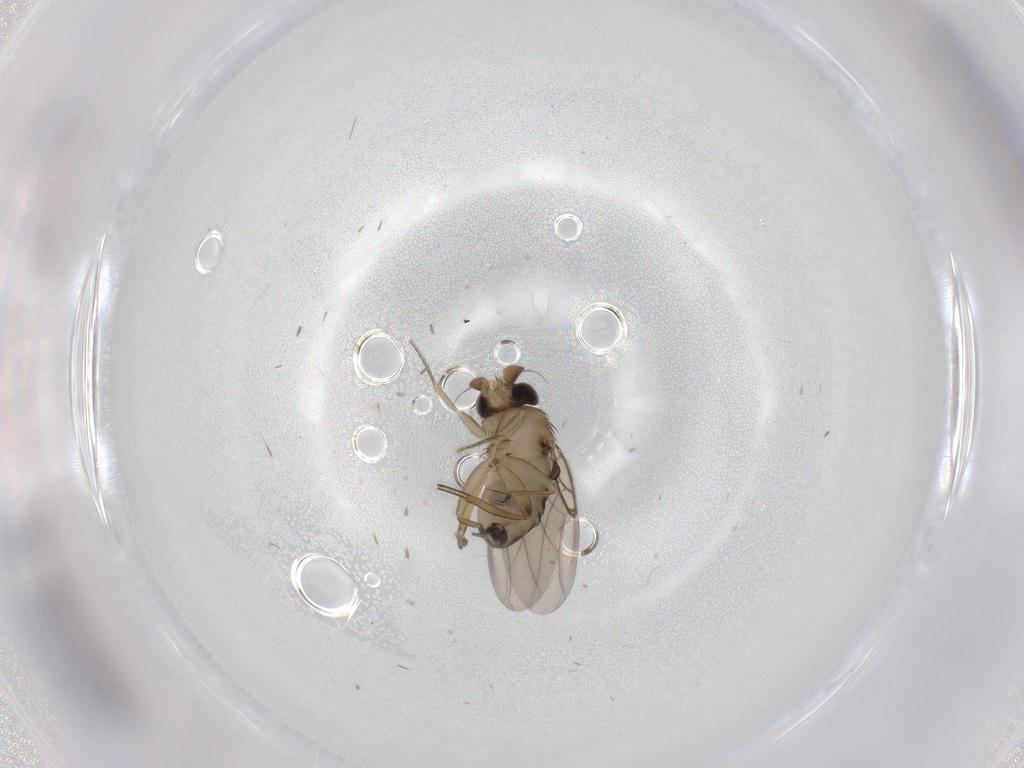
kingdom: Animalia
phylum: Arthropoda
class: Insecta
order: Diptera
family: Phoridae
